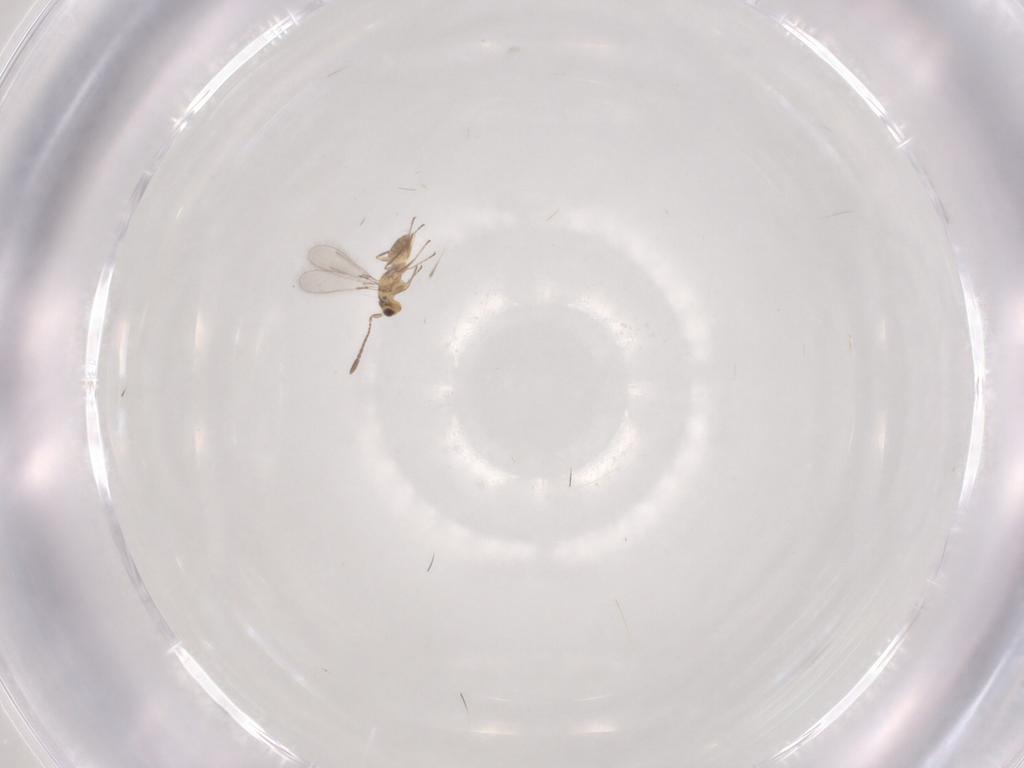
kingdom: Animalia
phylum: Arthropoda
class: Insecta
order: Hymenoptera
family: Mymaridae
